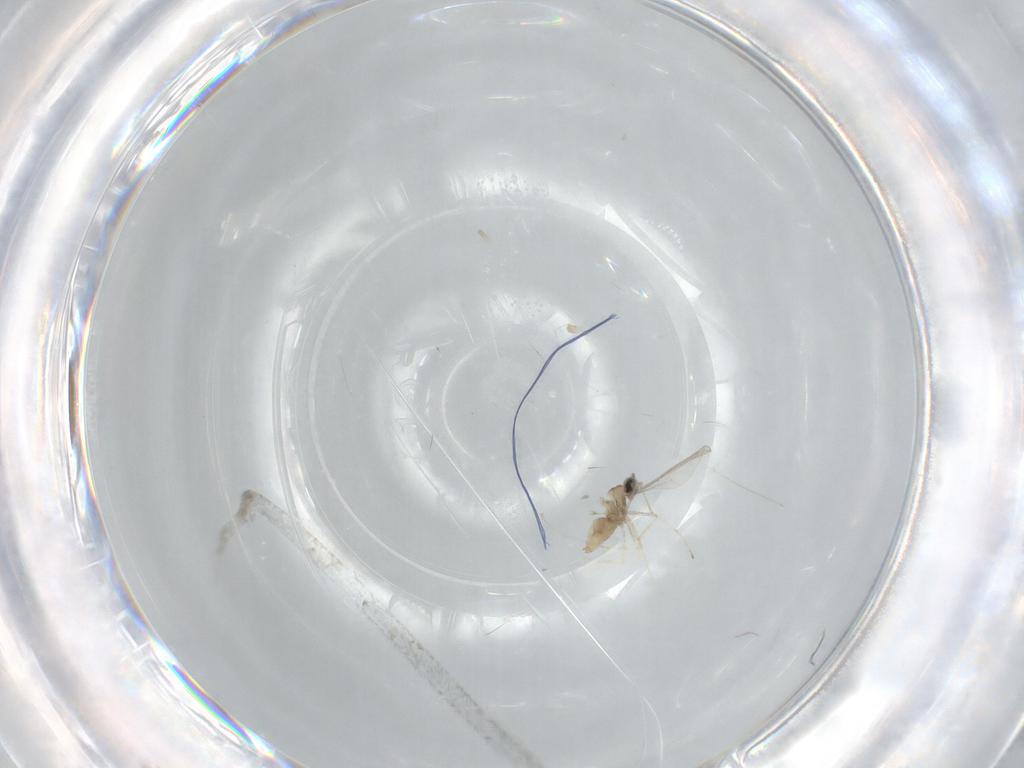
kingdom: Animalia
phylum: Arthropoda
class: Insecta
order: Diptera
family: Cecidomyiidae
